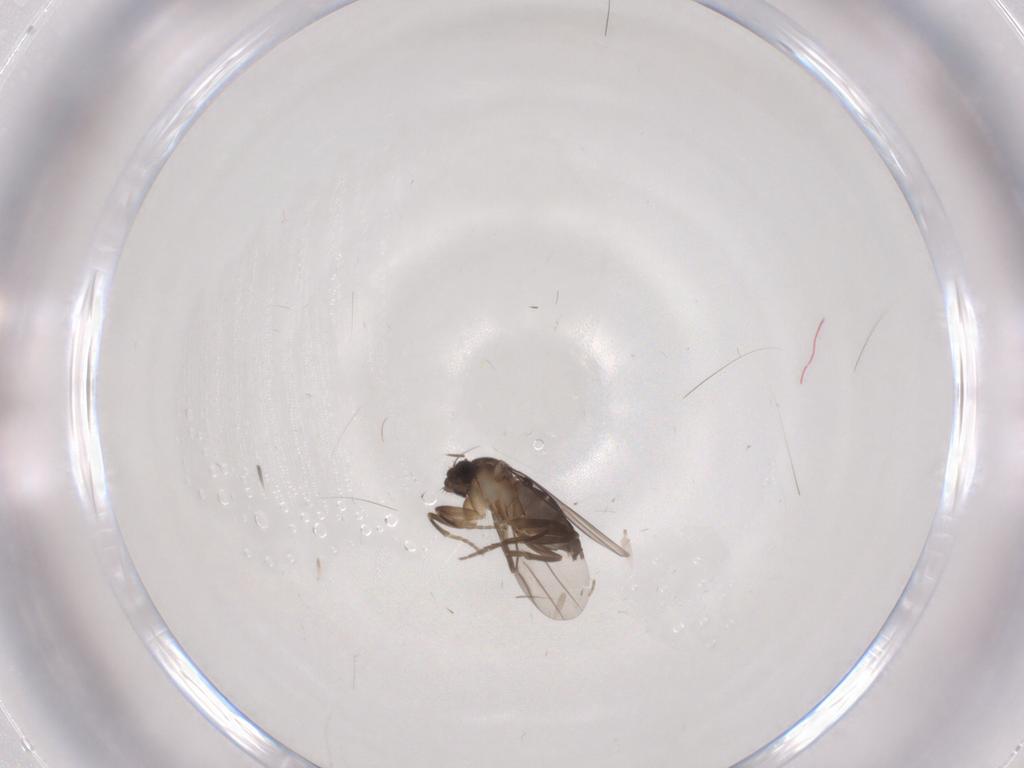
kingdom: Animalia
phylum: Arthropoda
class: Insecta
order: Diptera
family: Phoridae
